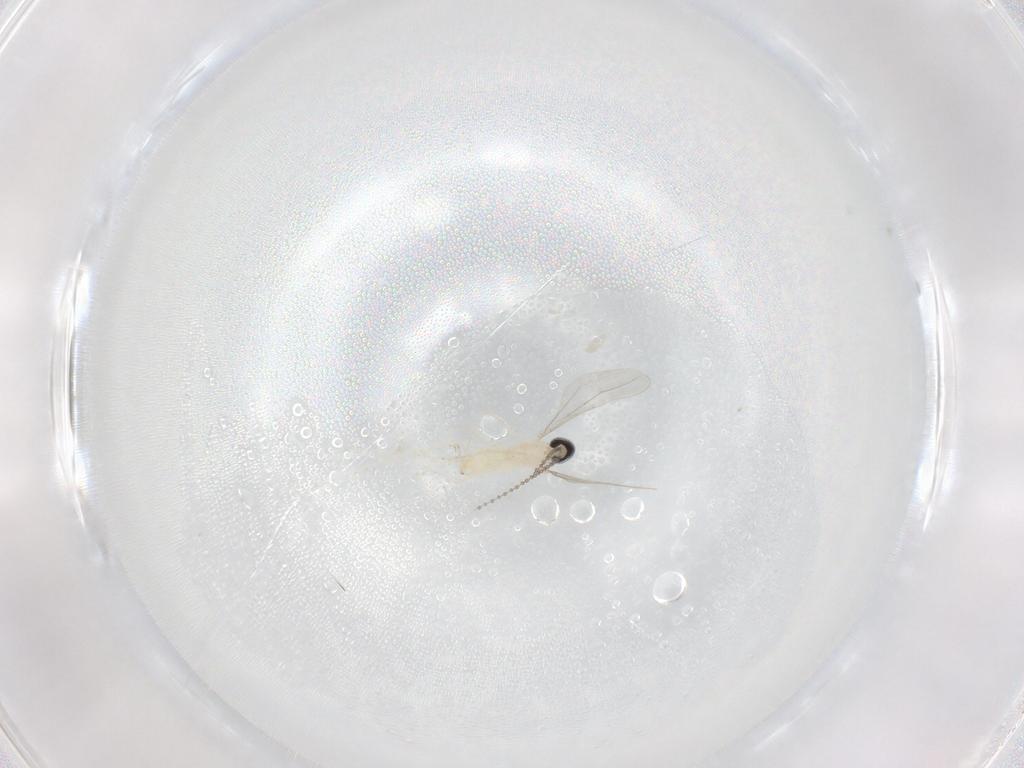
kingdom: Animalia
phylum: Arthropoda
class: Insecta
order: Diptera
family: Cecidomyiidae
